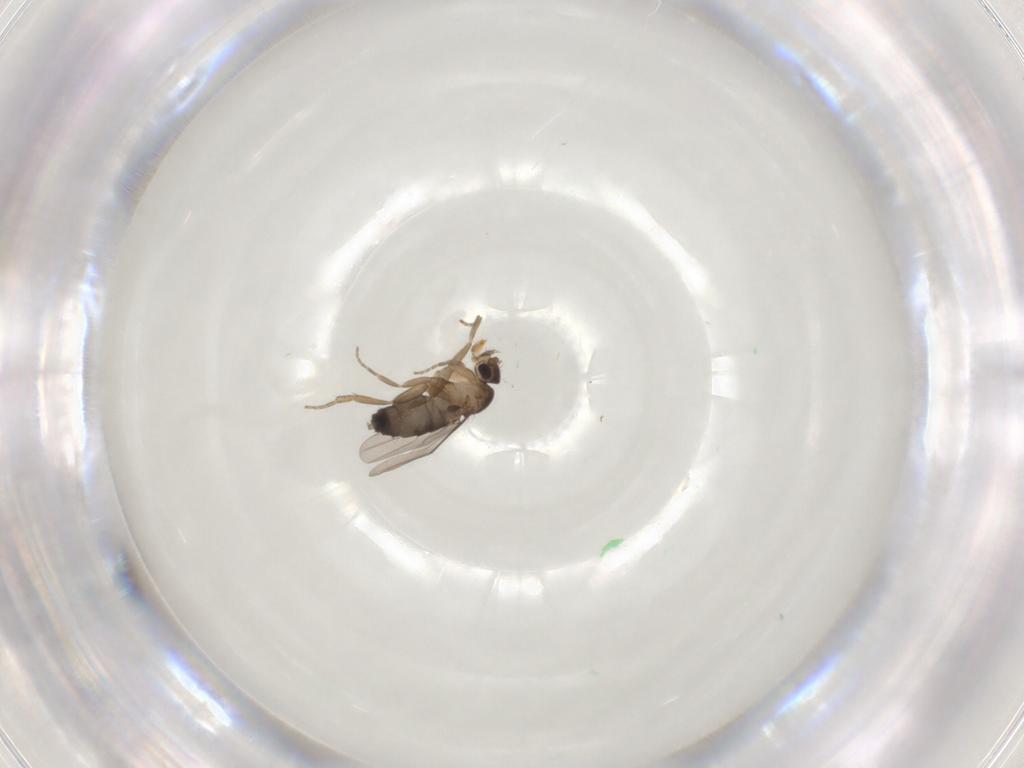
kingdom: Animalia
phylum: Arthropoda
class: Insecta
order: Diptera
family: Phoridae
